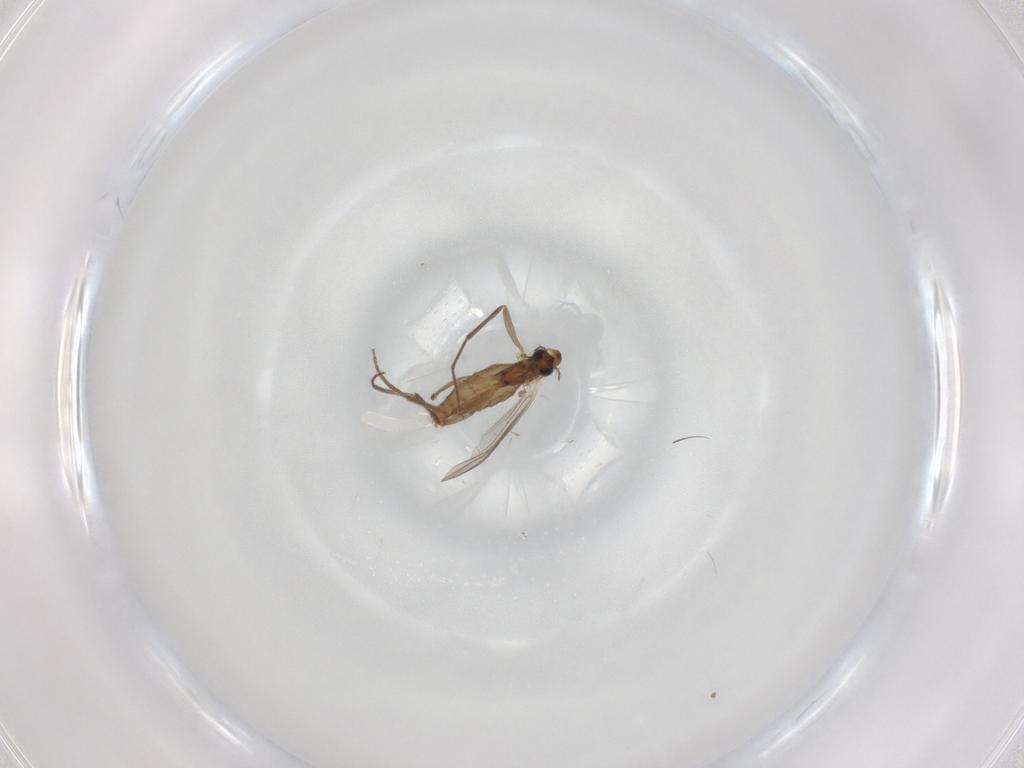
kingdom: Animalia
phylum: Arthropoda
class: Insecta
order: Diptera
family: Chironomidae
